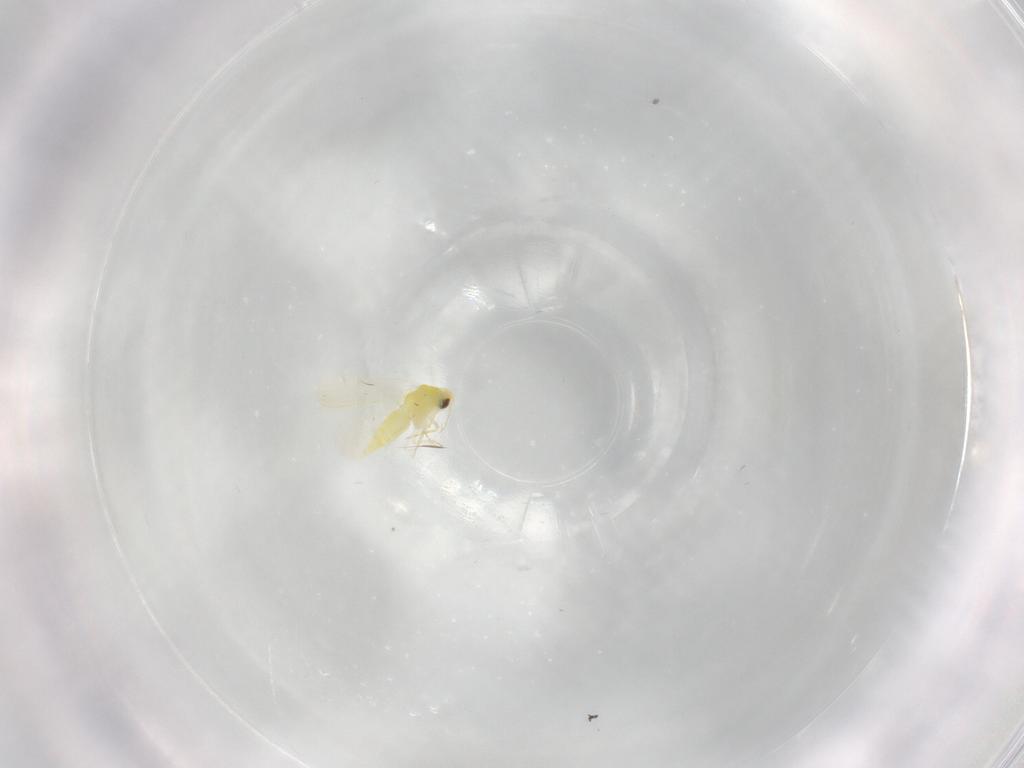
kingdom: Animalia
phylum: Arthropoda
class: Insecta
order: Hemiptera
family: Aleyrodidae
